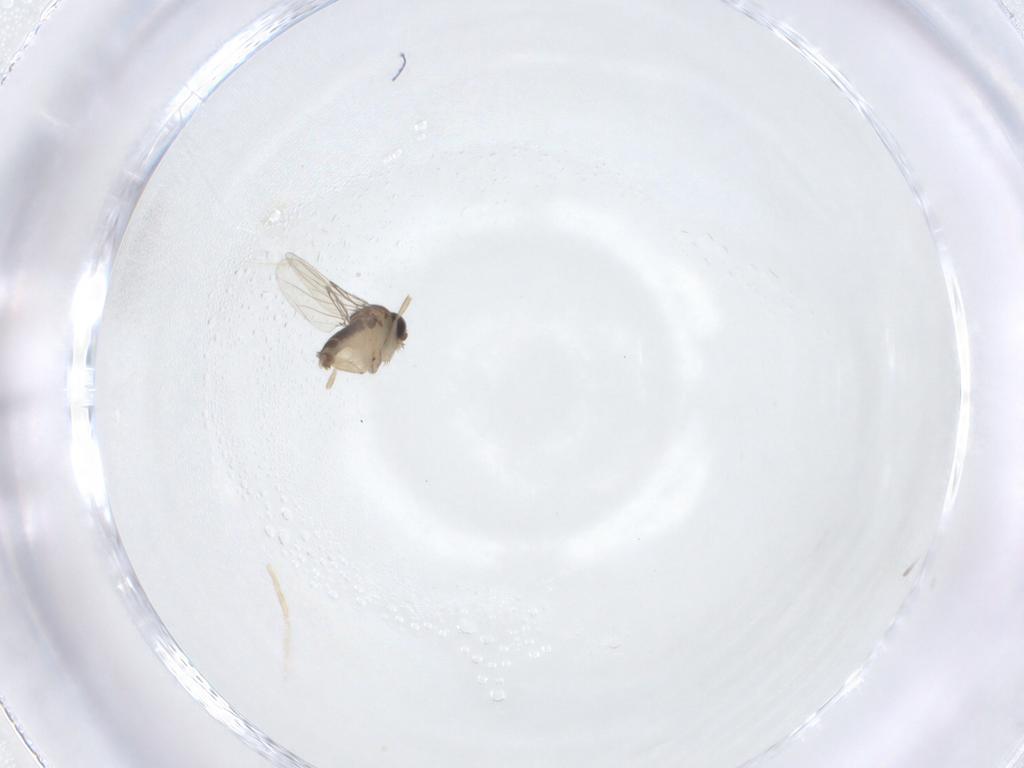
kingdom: Animalia
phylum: Arthropoda
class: Insecta
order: Diptera
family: Phoridae
